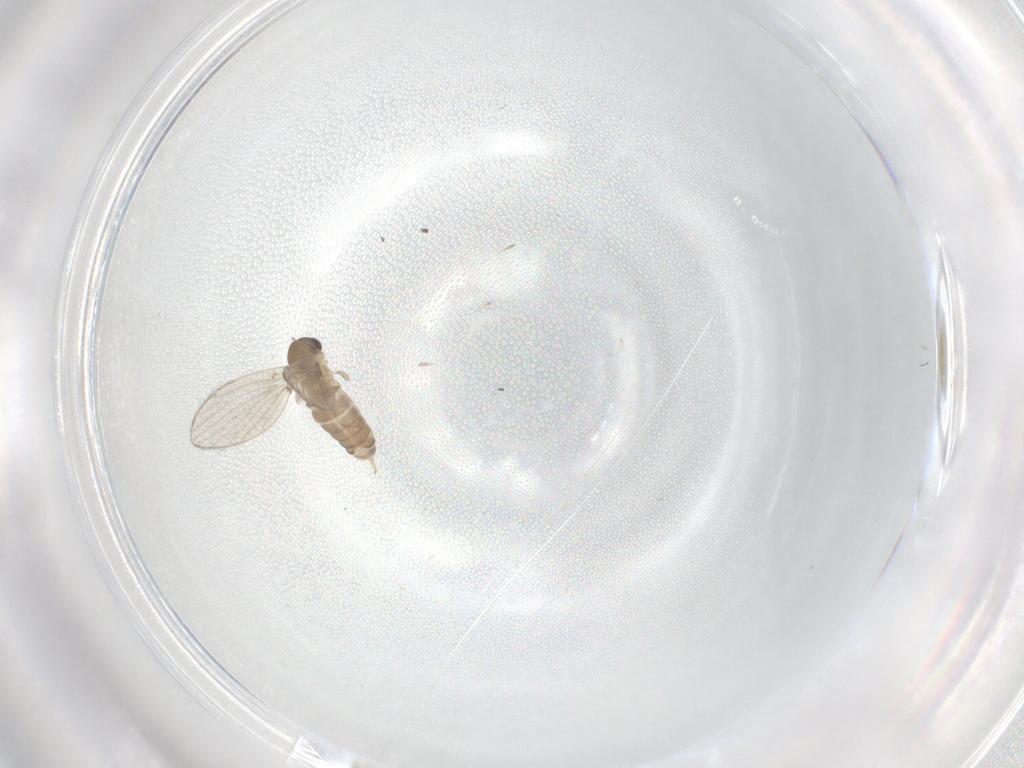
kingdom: Animalia
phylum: Arthropoda
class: Insecta
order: Diptera
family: Psychodidae
